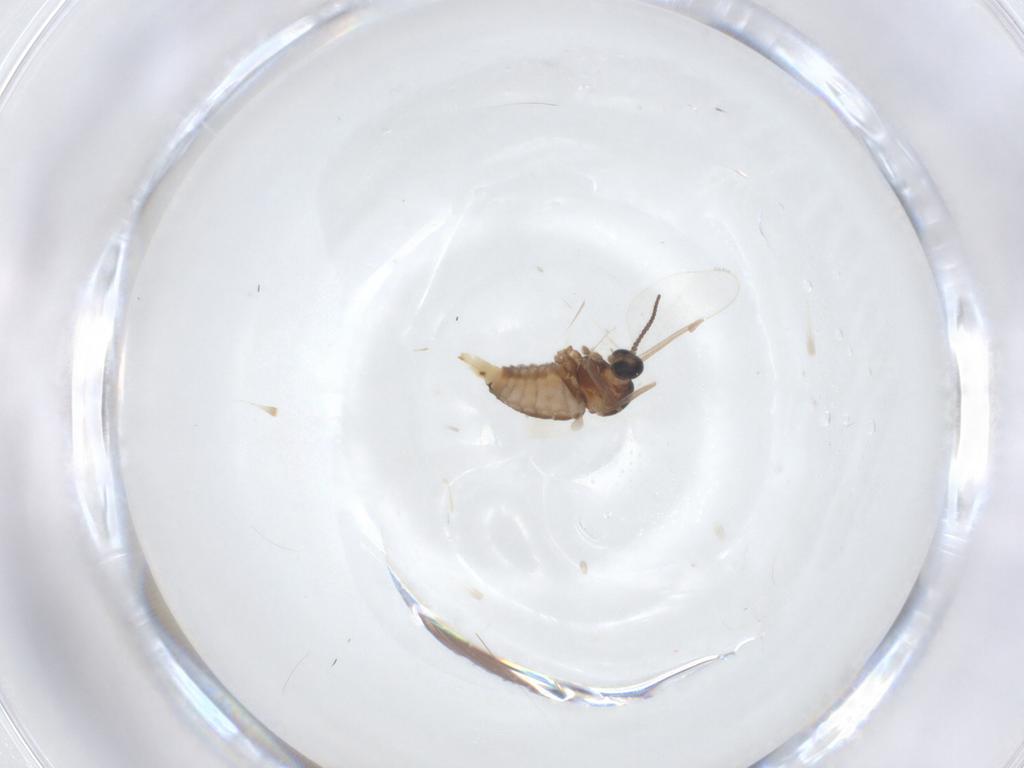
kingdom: Animalia
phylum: Arthropoda
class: Insecta
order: Diptera
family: Cecidomyiidae
